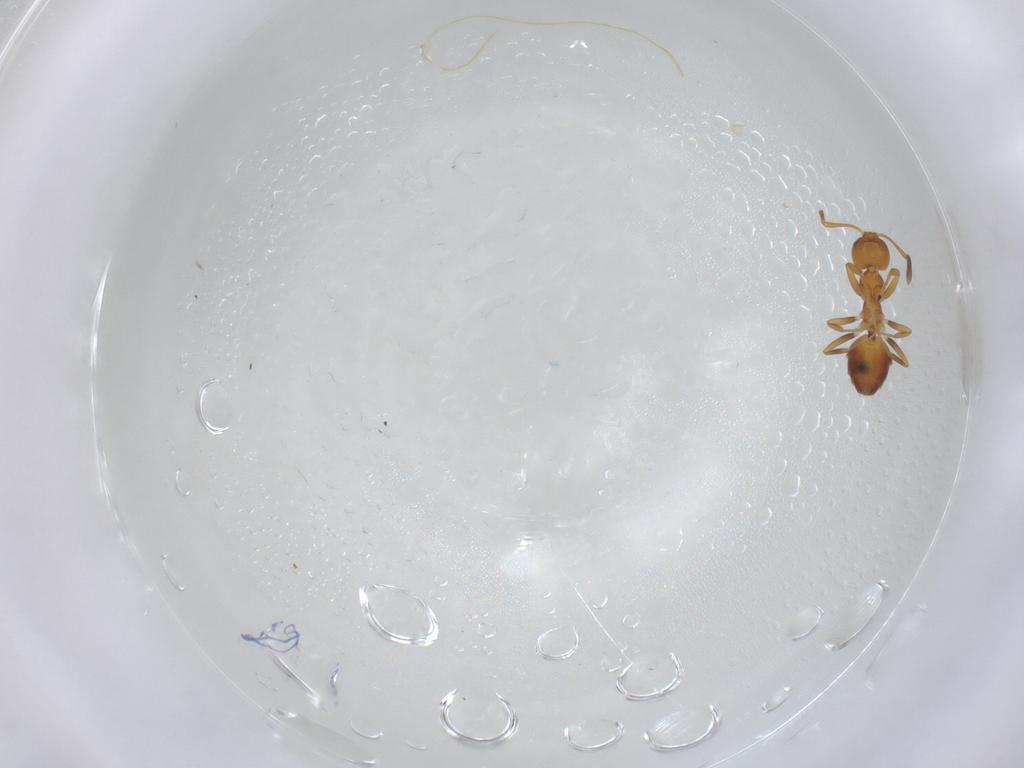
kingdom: Animalia
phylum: Arthropoda
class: Insecta
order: Hymenoptera
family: Formicidae
